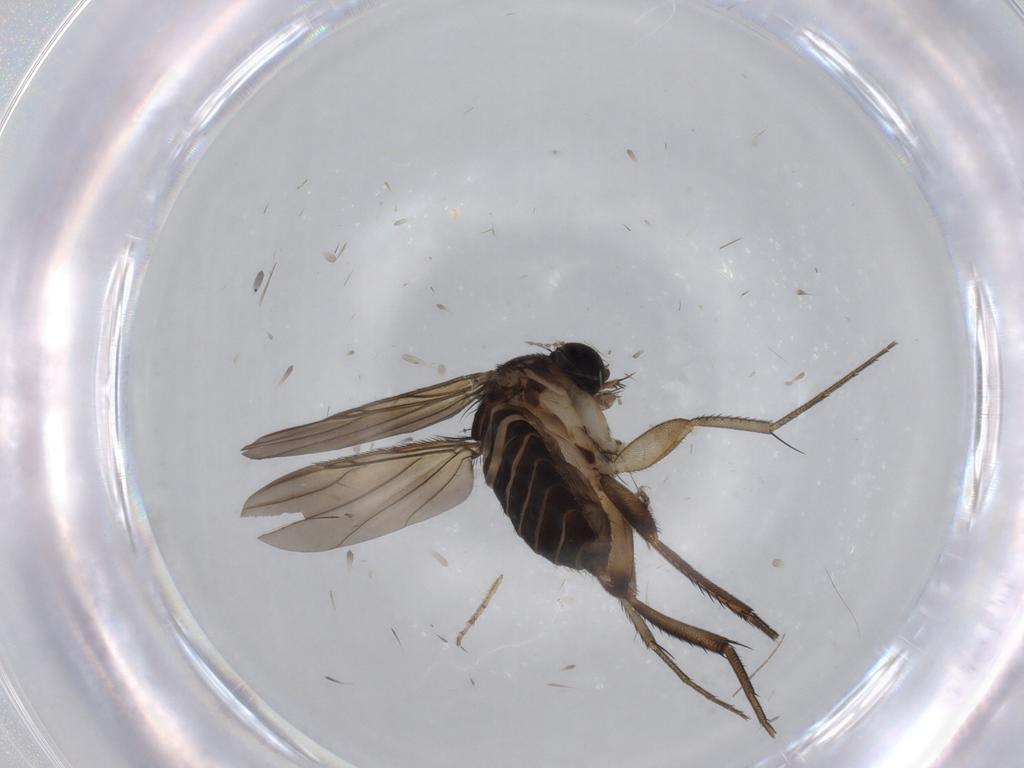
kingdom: Animalia
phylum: Arthropoda
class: Insecta
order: Diptera
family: Phoridae
